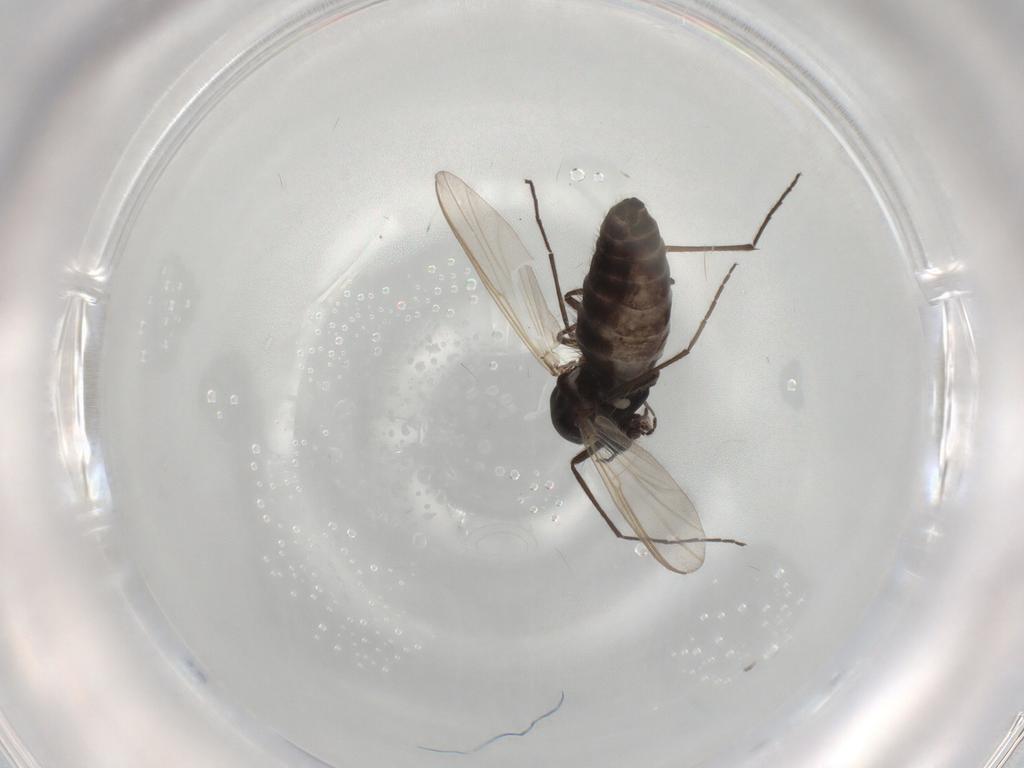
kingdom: Animalia
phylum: Arthropoda
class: Insecta
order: Diptera
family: Chironomidae
